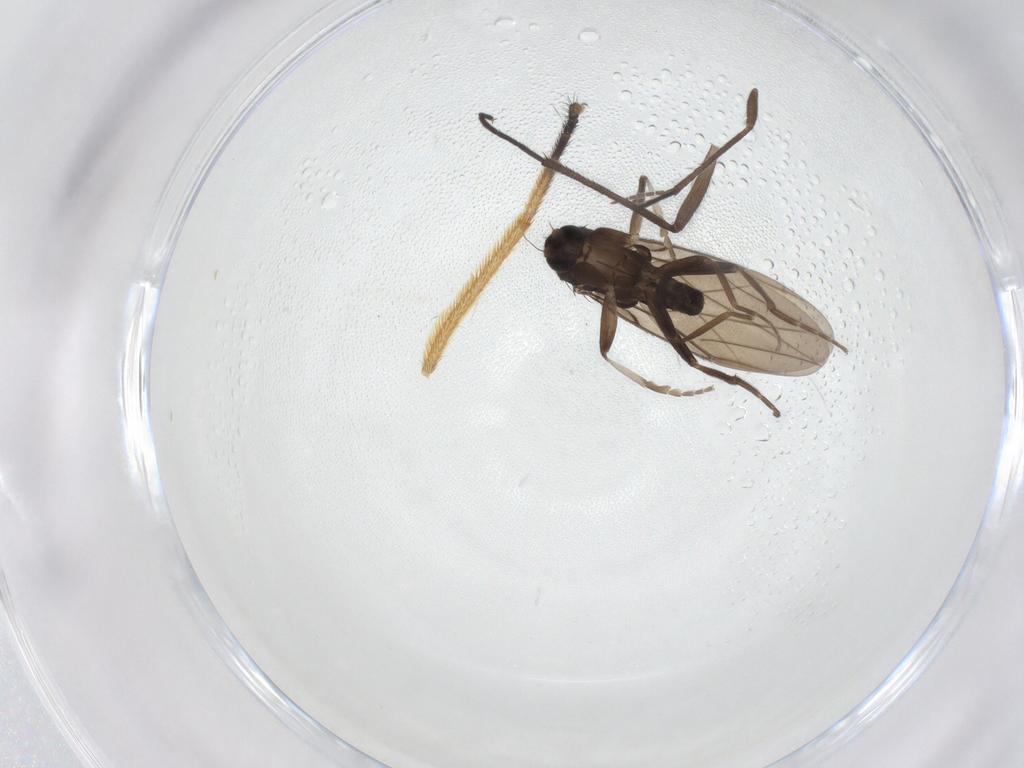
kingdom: Animalia
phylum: Arthropoda
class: Insecta
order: Diptera
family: Phoridae
